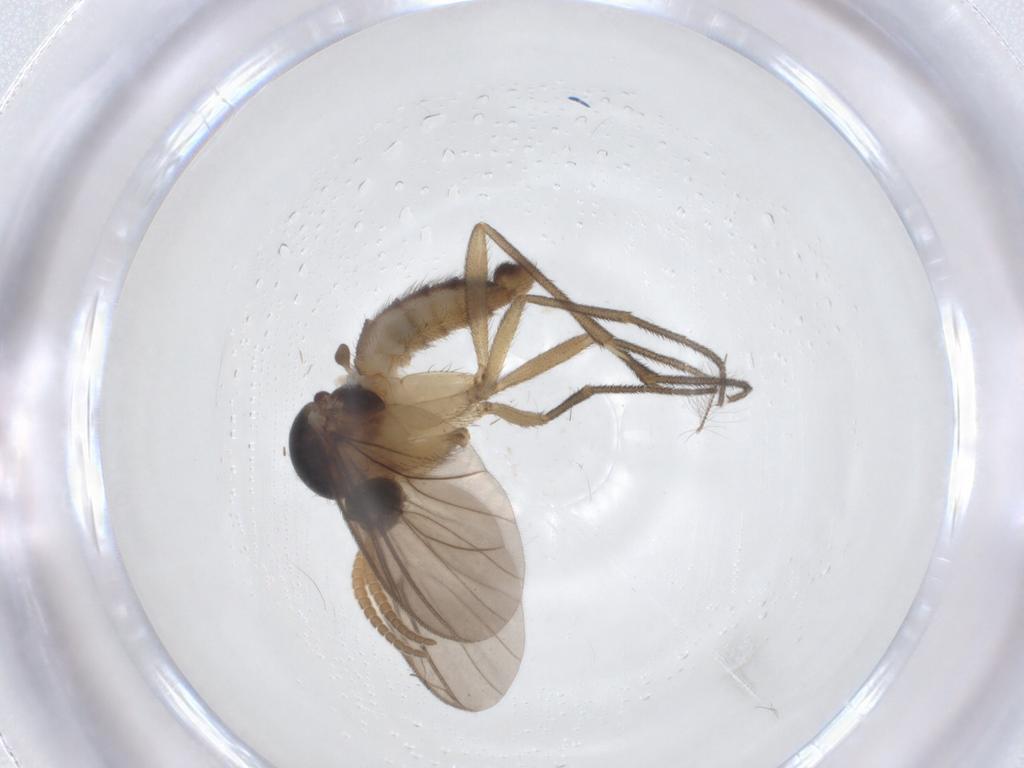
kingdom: Animalia
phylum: Arthropoda
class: Insecta
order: Diptera
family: Mycetophilidae
